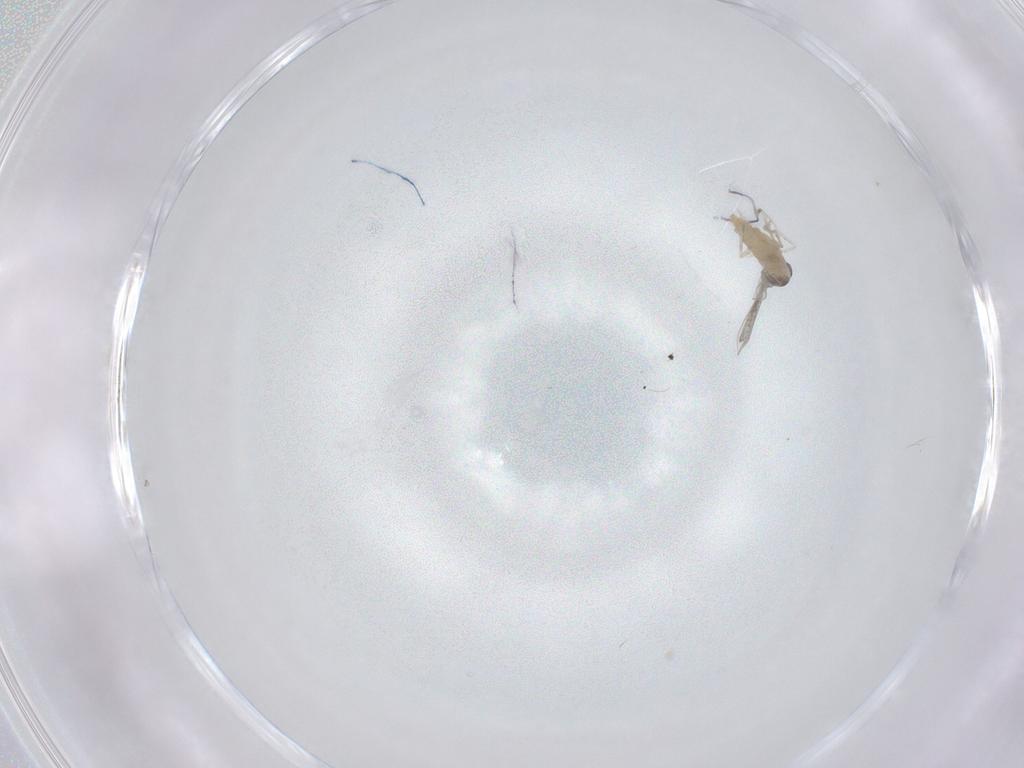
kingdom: Animalia
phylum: Arthropoda
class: Insecta
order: Diptera
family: Cecidomyiidae
